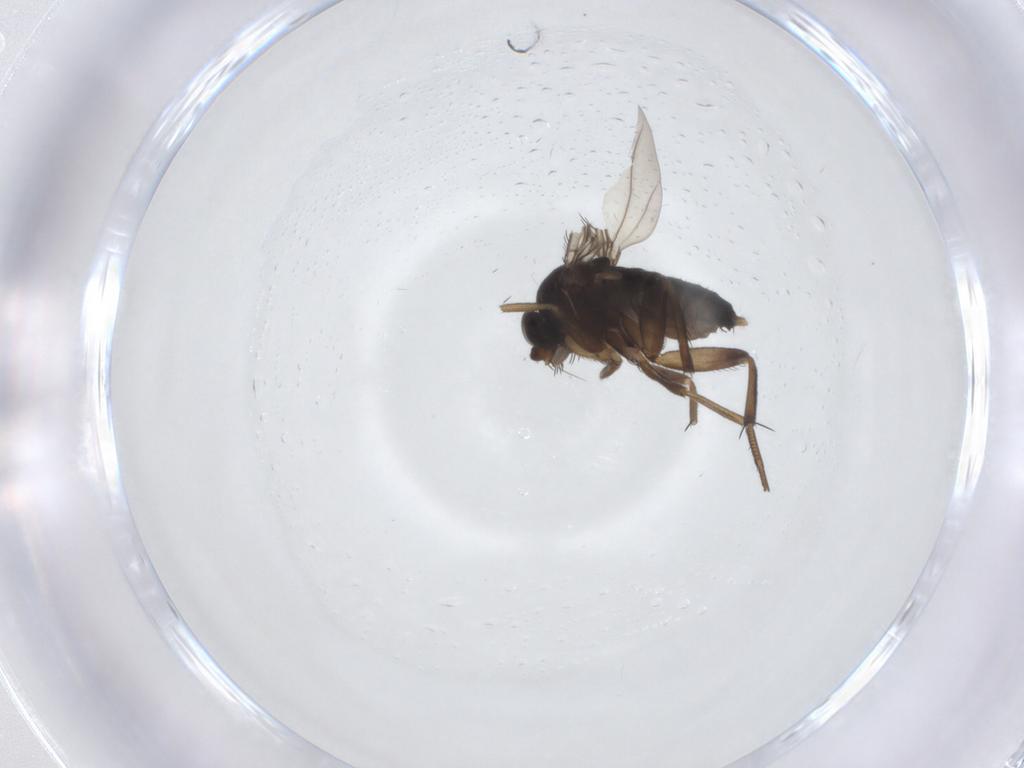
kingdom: Animalia
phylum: Arthropoda
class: Insecta
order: Diptera
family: Phoridae
